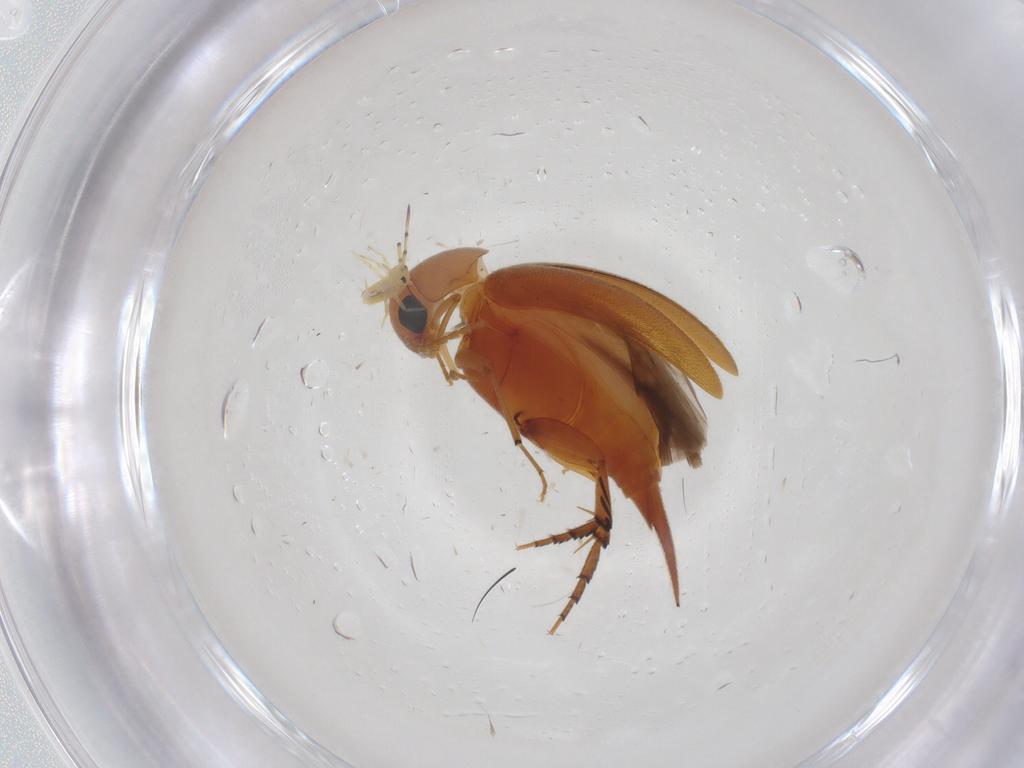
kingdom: Animalia
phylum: Arthropoda
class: Insecta
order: Coleoptera
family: Mordellidae
